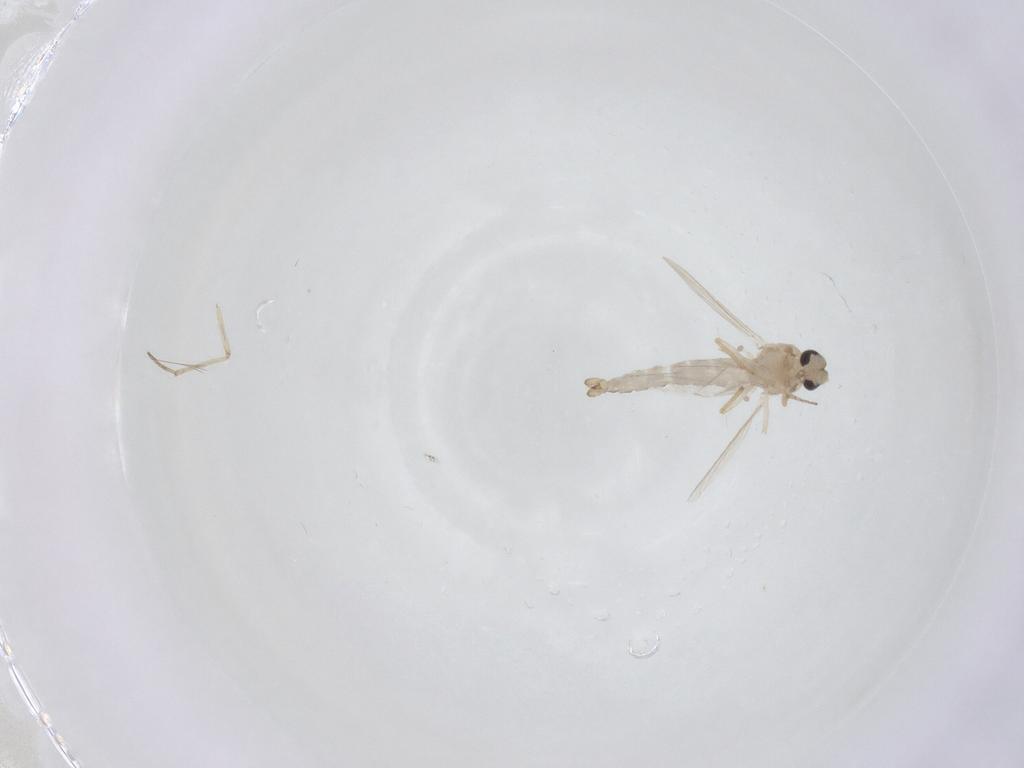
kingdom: Animalia
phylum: Arthropoda
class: Insecta
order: Diptera
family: Ceratopogonidae
